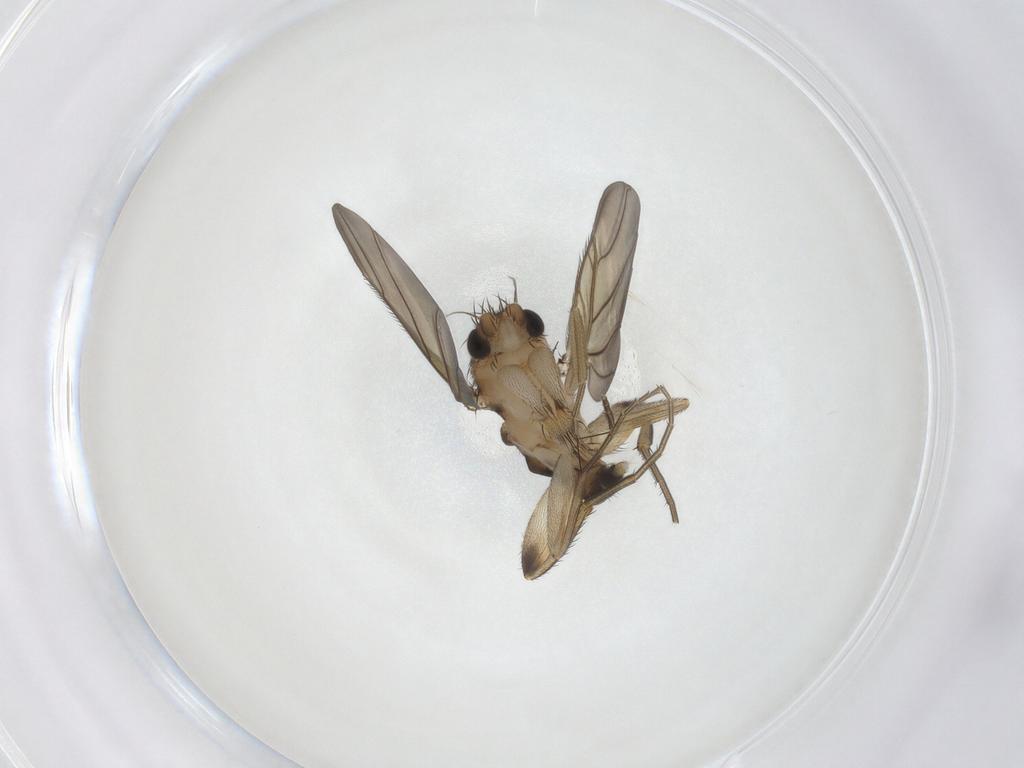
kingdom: Animalia
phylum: Arthropoda
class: Insecta
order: Diptera
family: Phoridae
